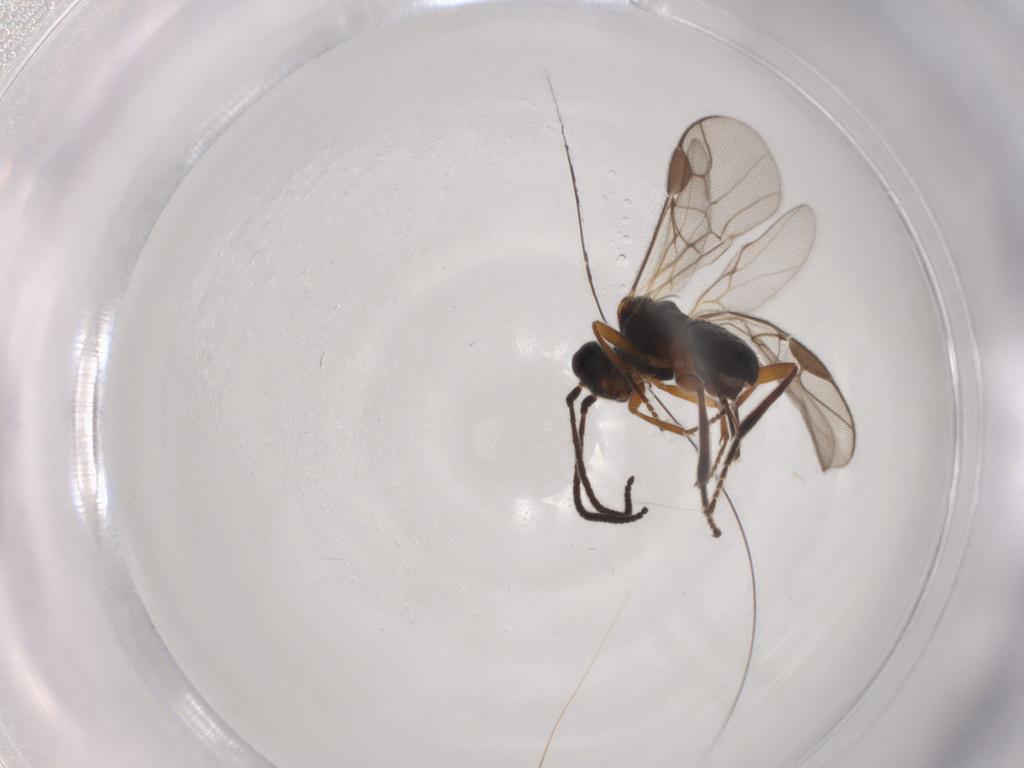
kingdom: Animalia
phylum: Arthropoda
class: Insecta
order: Hymenoptera
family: Braconidae
